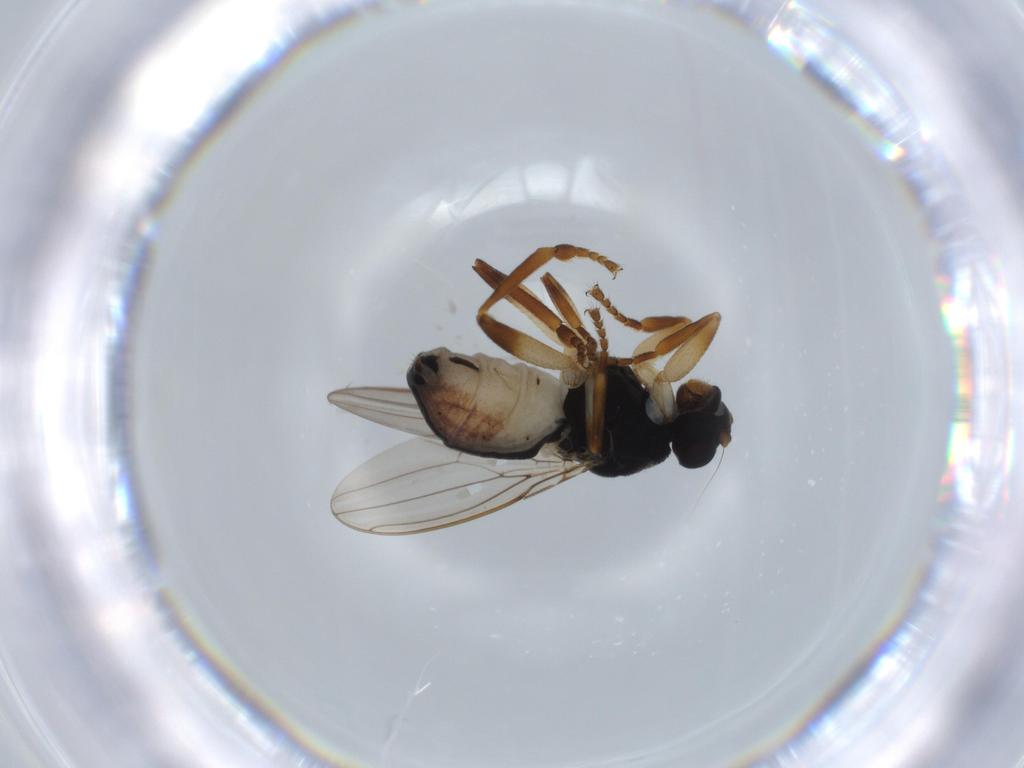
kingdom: Animalia
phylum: Arthropoda
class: Insecta
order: Diptera
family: Sphaeroceridae
